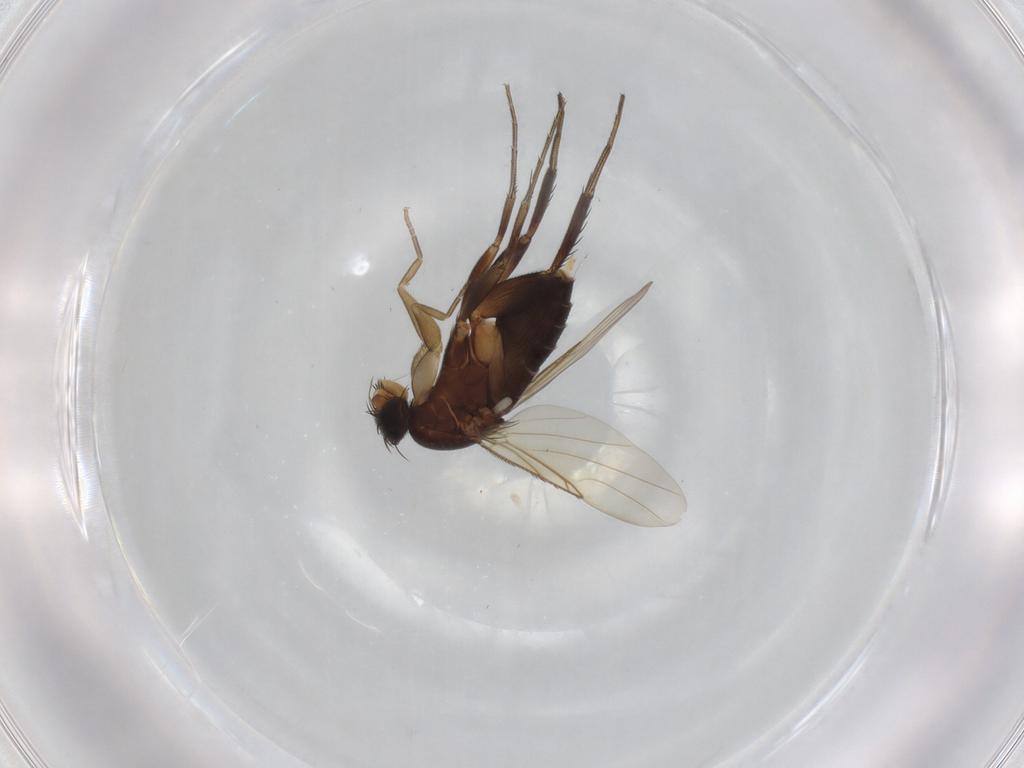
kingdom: Animalia
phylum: Arthropoda
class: Insecta
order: Diptera
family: Phoridae
